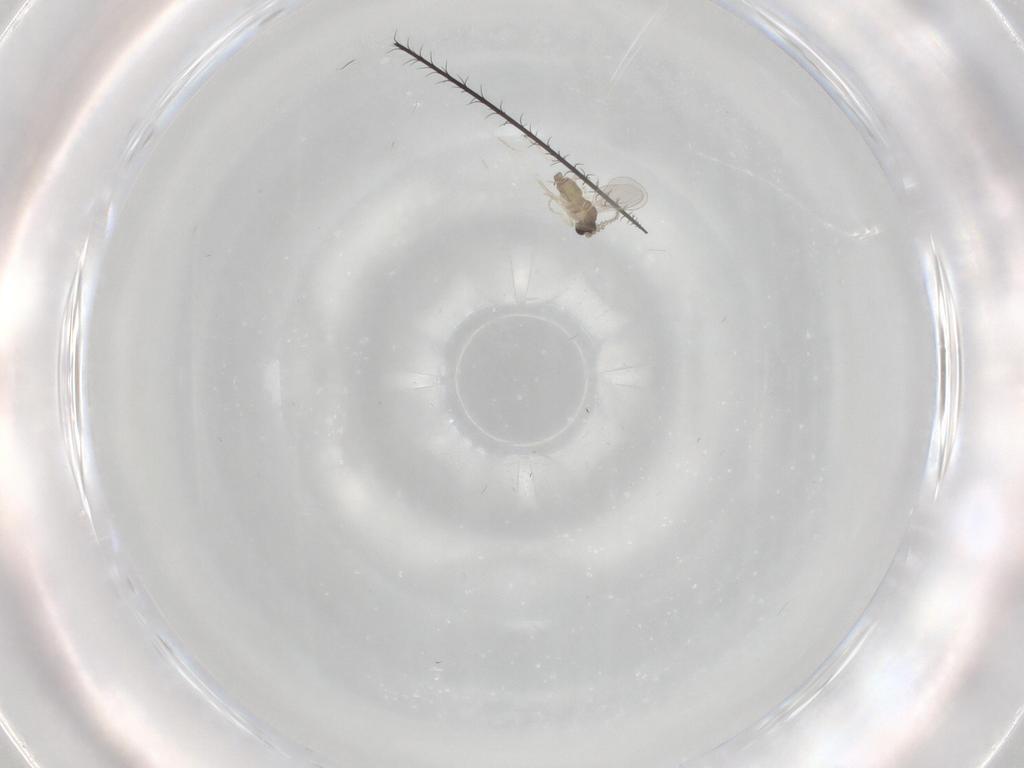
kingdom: Animalia
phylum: Arthropoda
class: Insecta
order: Diptera
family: Cecidomyiidae
